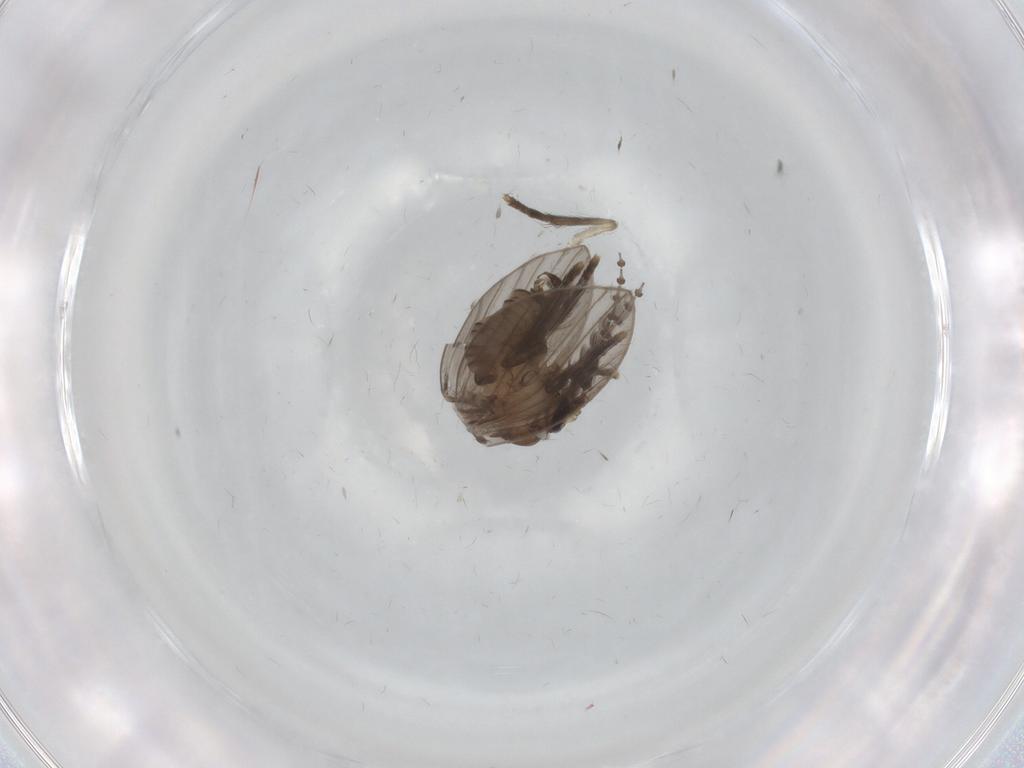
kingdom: Animalia
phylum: Arthropoda
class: Insecta
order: Diptera
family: Psychodidae
